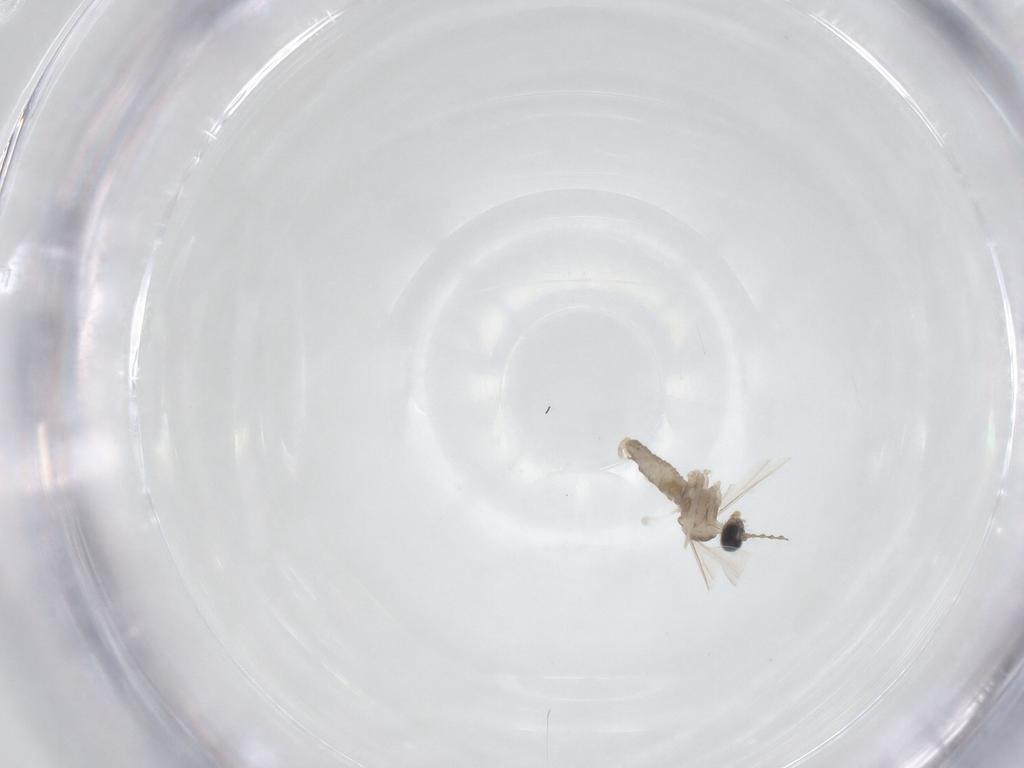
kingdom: Animalia
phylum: Arthropoda
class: Insecta
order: Diptera
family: Cecidomyiidae
